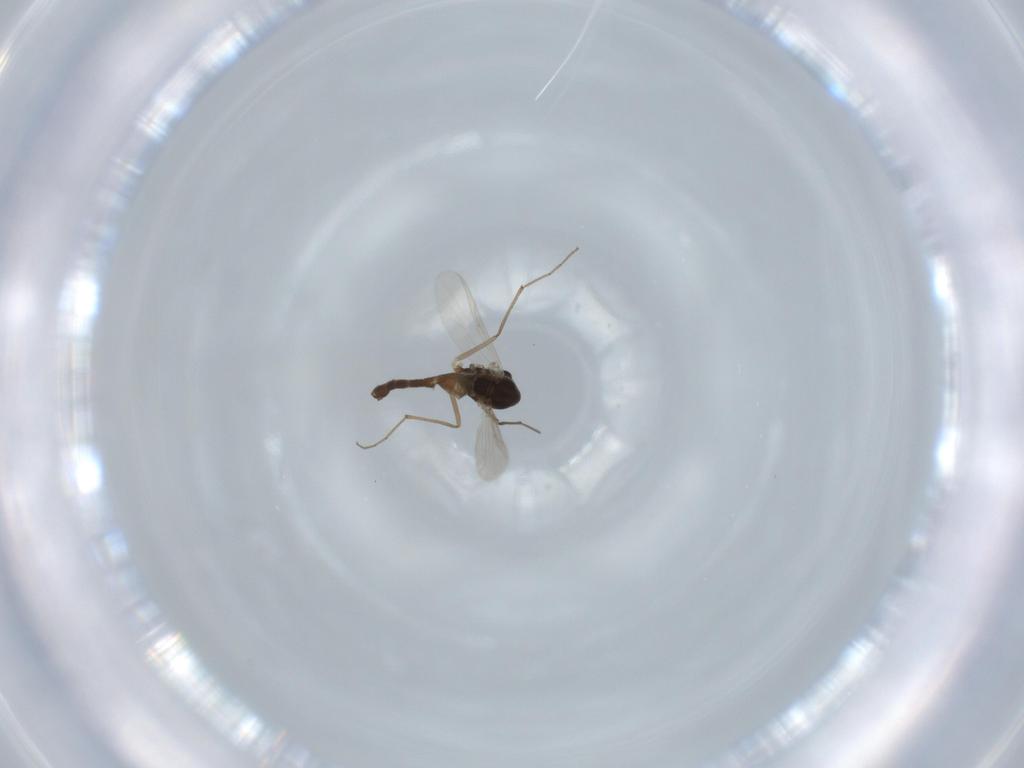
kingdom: Animalia
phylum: Arthropoda
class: Insecta
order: Diptera
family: Chironomidae
